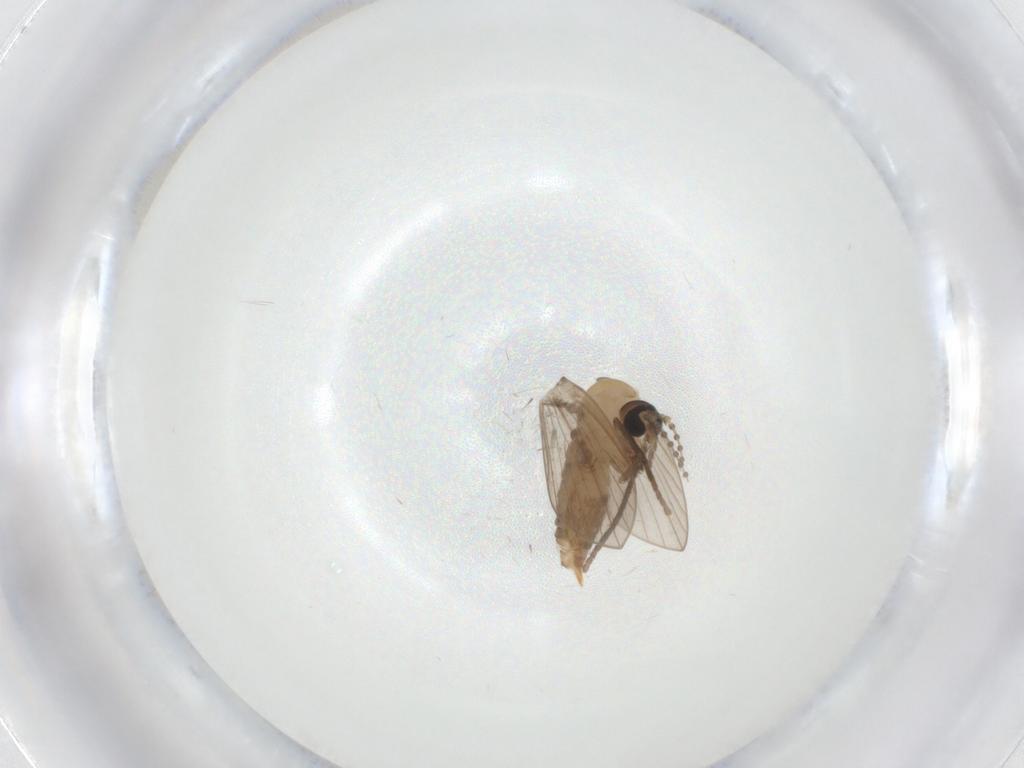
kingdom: Animalia
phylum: Arthropoda
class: Insecta
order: Diptera
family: Psychodidae
